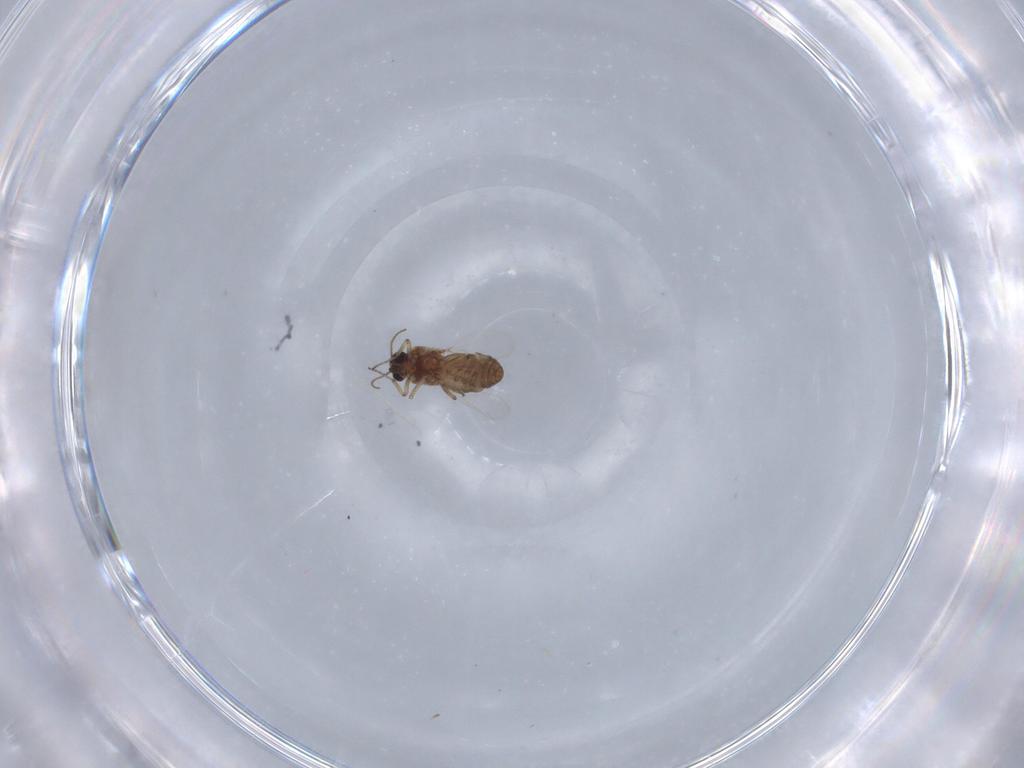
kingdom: Animalia
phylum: Arthropoda
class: Insecta
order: Diptera
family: Ceratopogonidae
